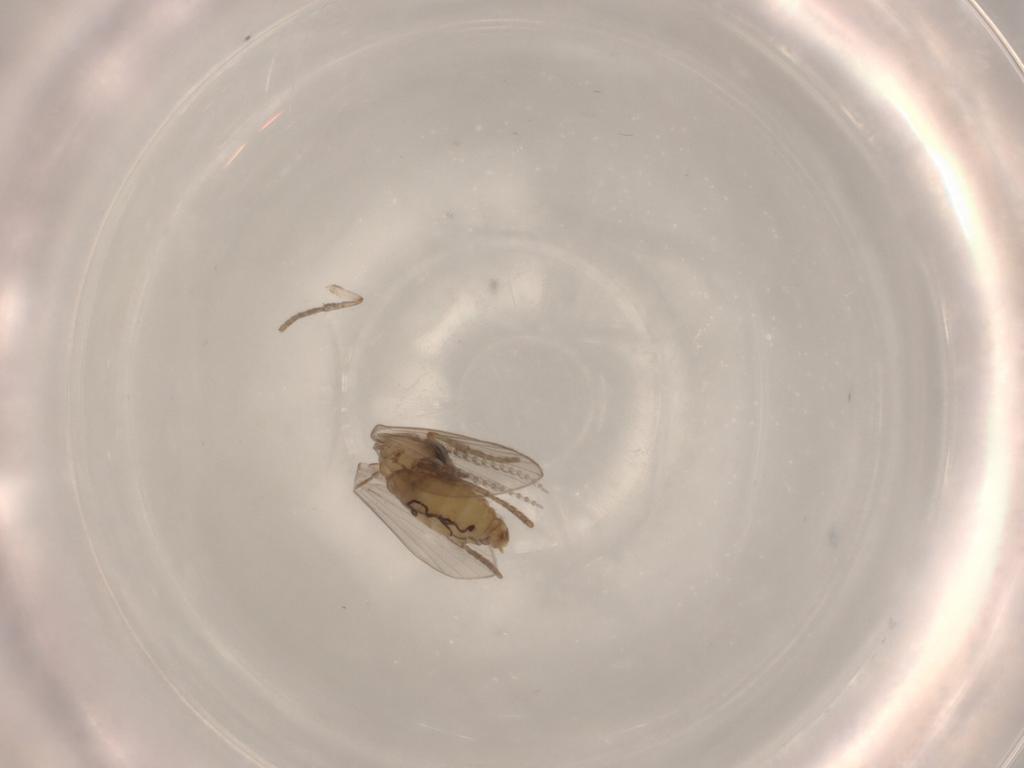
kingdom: Animalia
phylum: Arthropoda
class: Insecta
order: Diptera
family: Psychodidae
